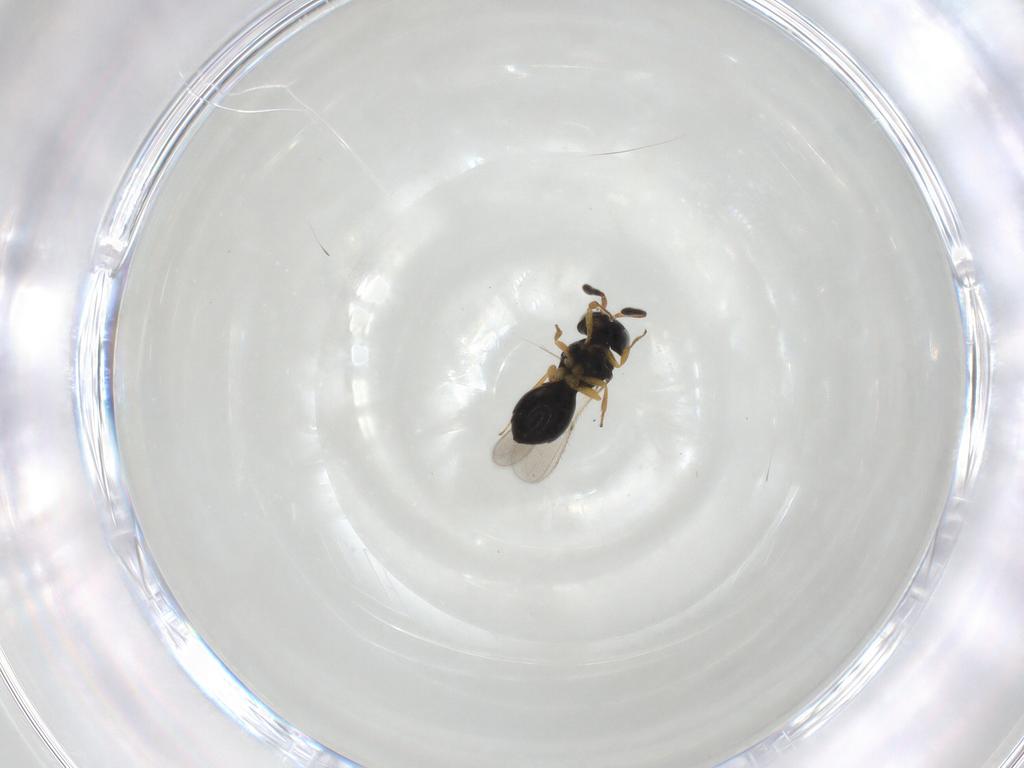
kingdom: Animalia
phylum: Arthropoda
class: Insecta
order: Hymenoptera
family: Scelionidae
